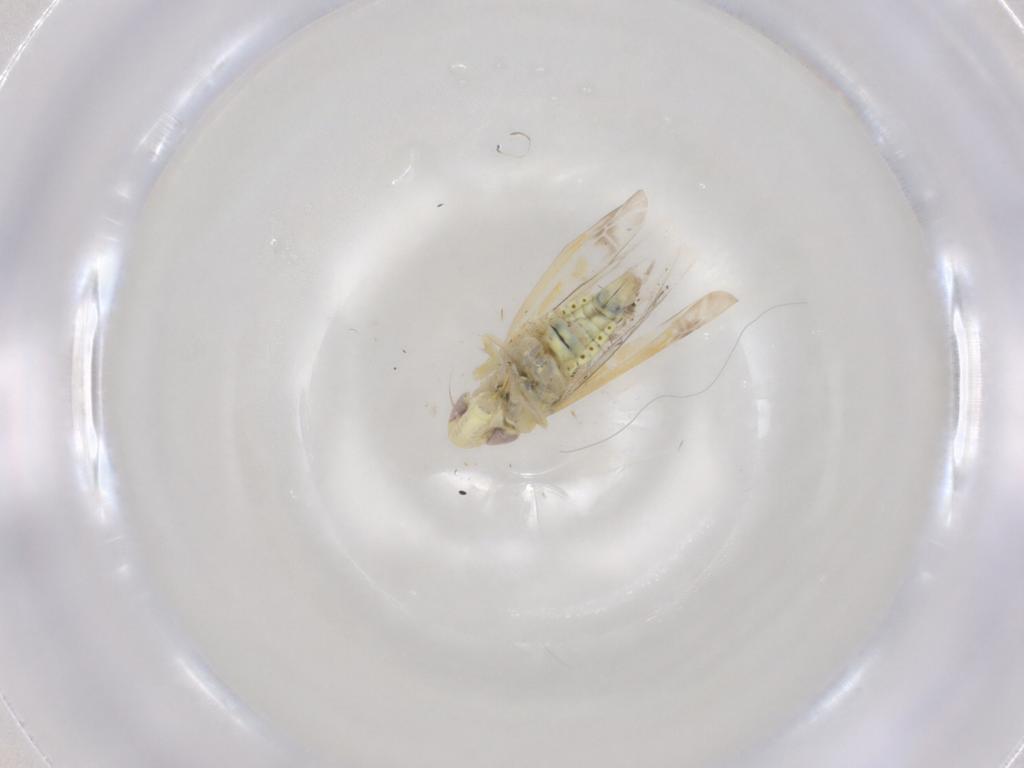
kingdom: Animalia
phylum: Arthropoda
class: Insecta
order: Hemiptera
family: Cicadellidae
